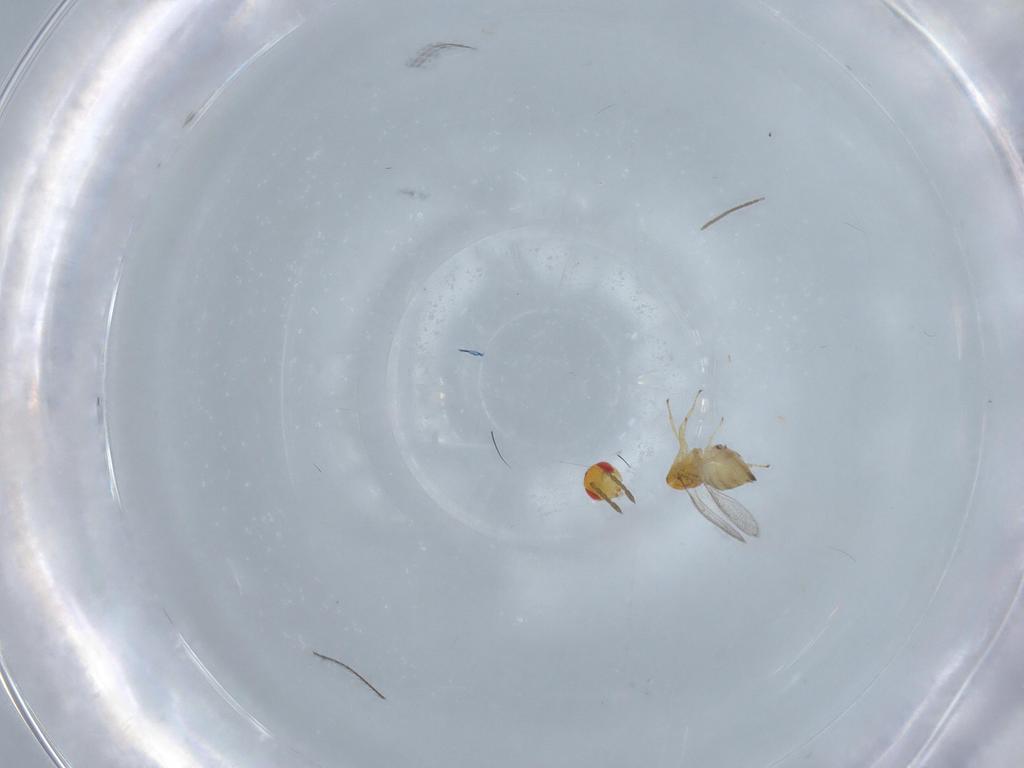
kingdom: Animalia
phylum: Arthropoda
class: Insecta
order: Hymenoptera
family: Eulophidae
